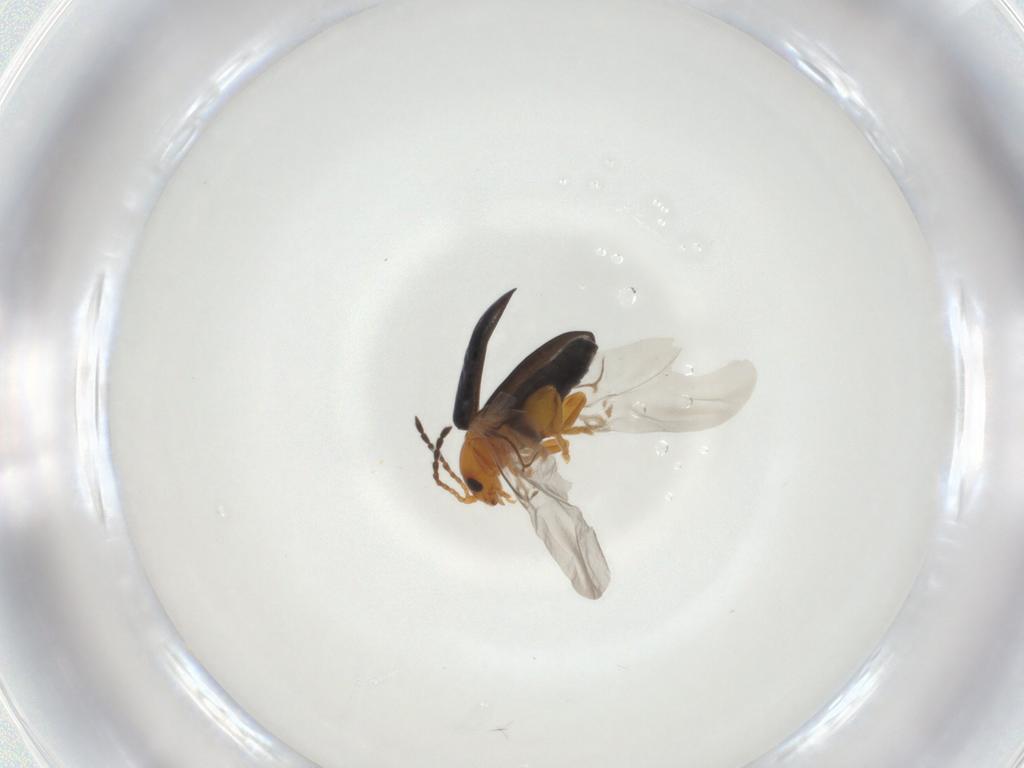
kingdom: Animalia
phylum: Arthropoda
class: Insecta
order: Coleoptera
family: Chrysomelidae
